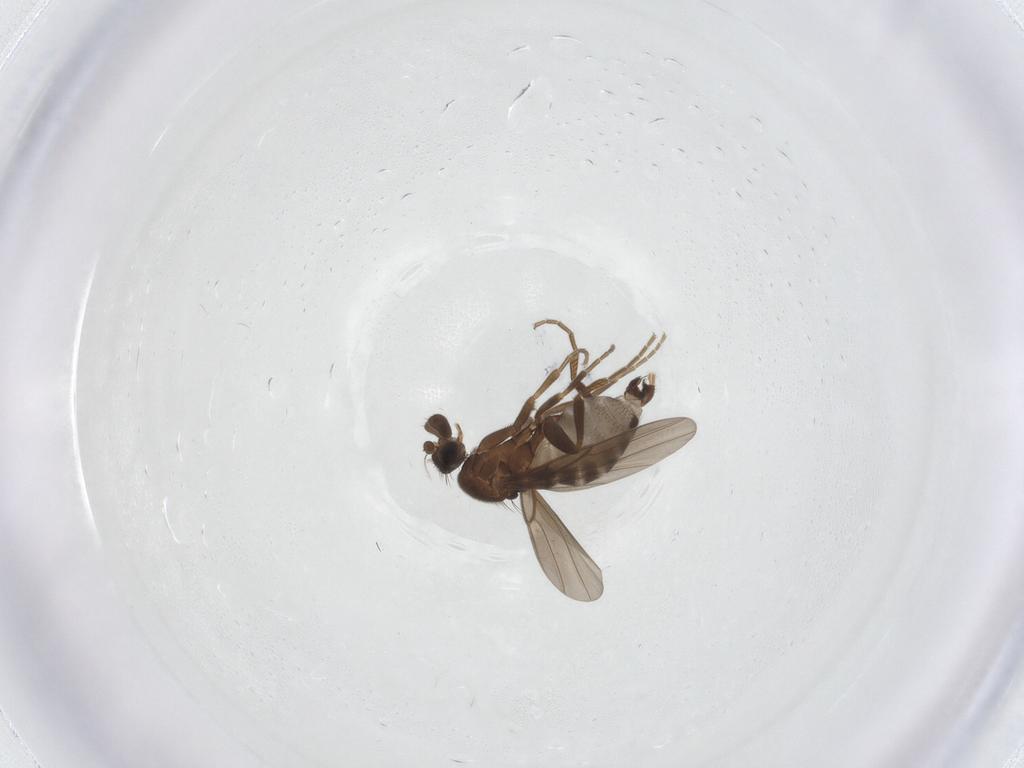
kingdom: Animalia
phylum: Arthropoda
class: Insecta
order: Diptera
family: Phoridae
